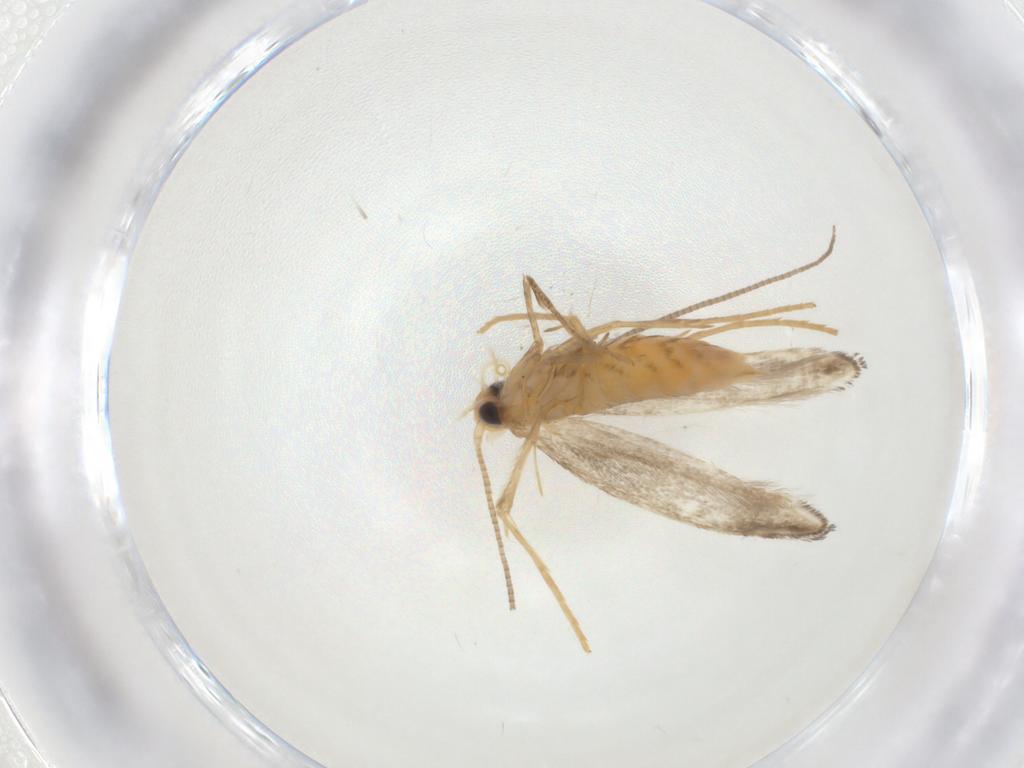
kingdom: Animalia
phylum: Arthropoda
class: Insecta
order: Lepidoptera
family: Gracillariidae
